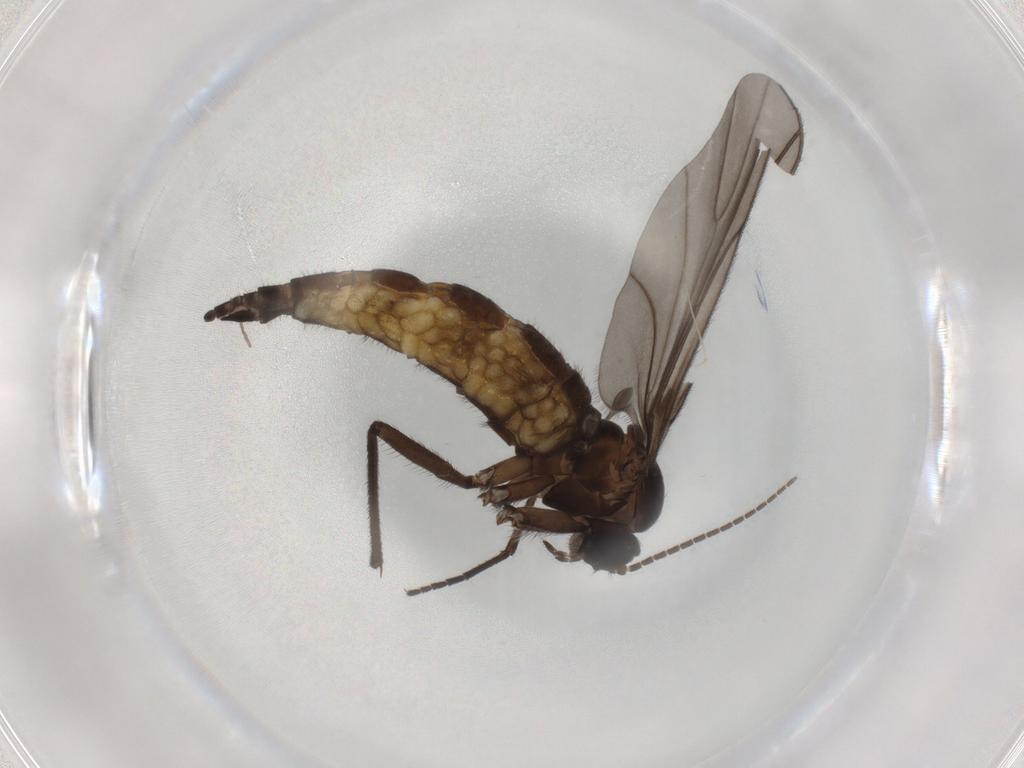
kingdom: Animalia
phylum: Arthropoda
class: Insecta
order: Diptera
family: Sciaridae
